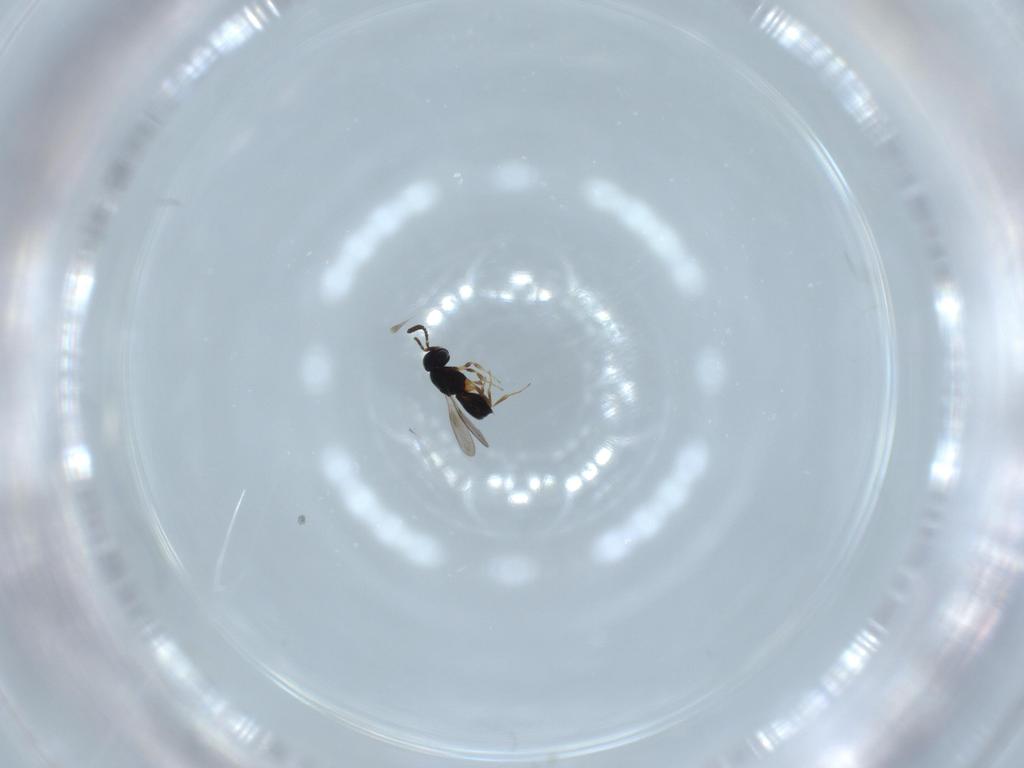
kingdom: Animalia
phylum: Arthropoda
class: Insecta
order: Hymenoptera
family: Scelionidae
